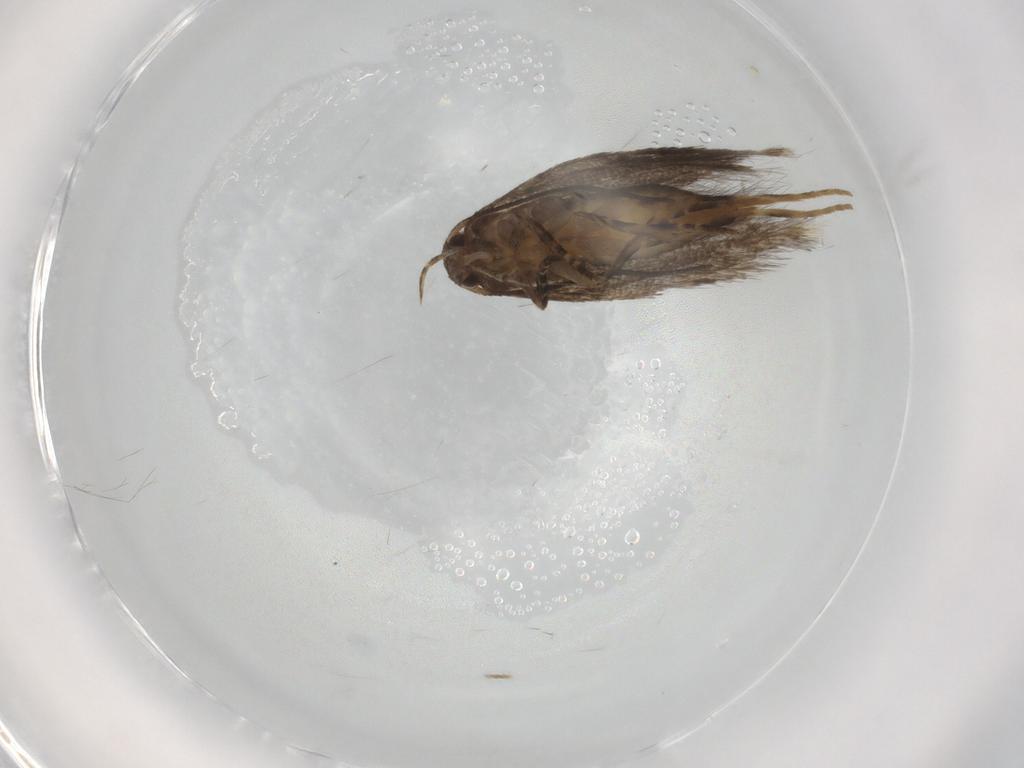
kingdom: Animalia
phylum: Arthropoda
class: Insecta
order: Lepidoptera
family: Elachistidae
